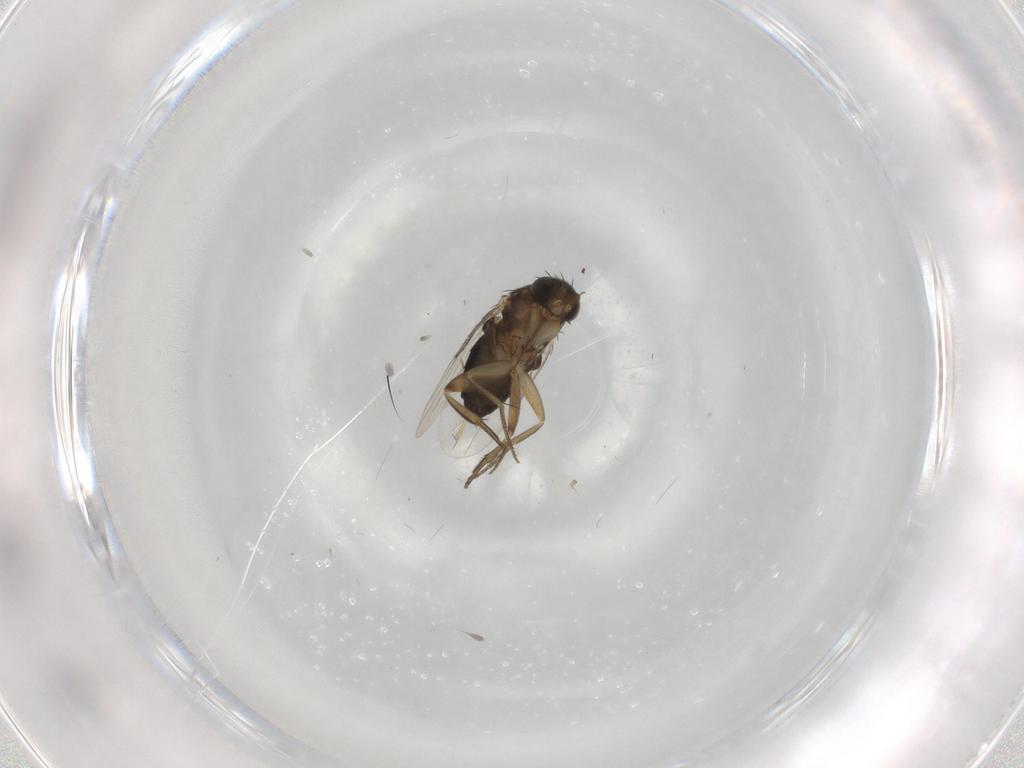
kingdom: Animalia
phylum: Arthropoda
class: Insecta
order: Diptera
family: Phoridae
